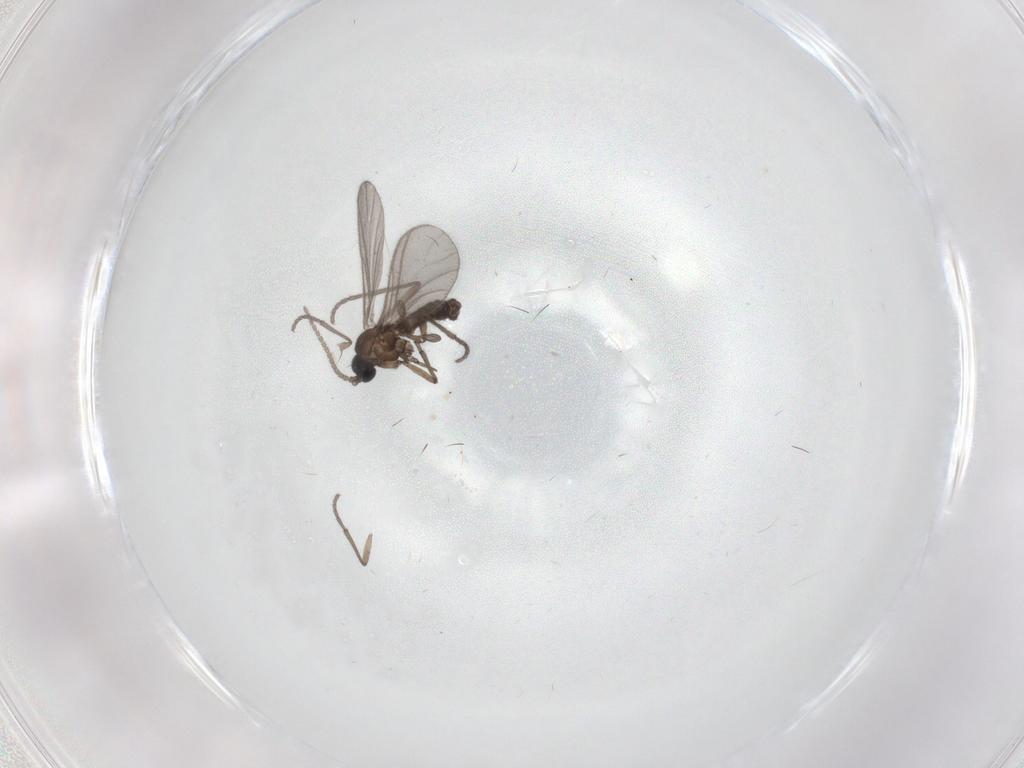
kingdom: Animalia
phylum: Arthropoda
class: Insecta
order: Diptera
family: Sciaridae
